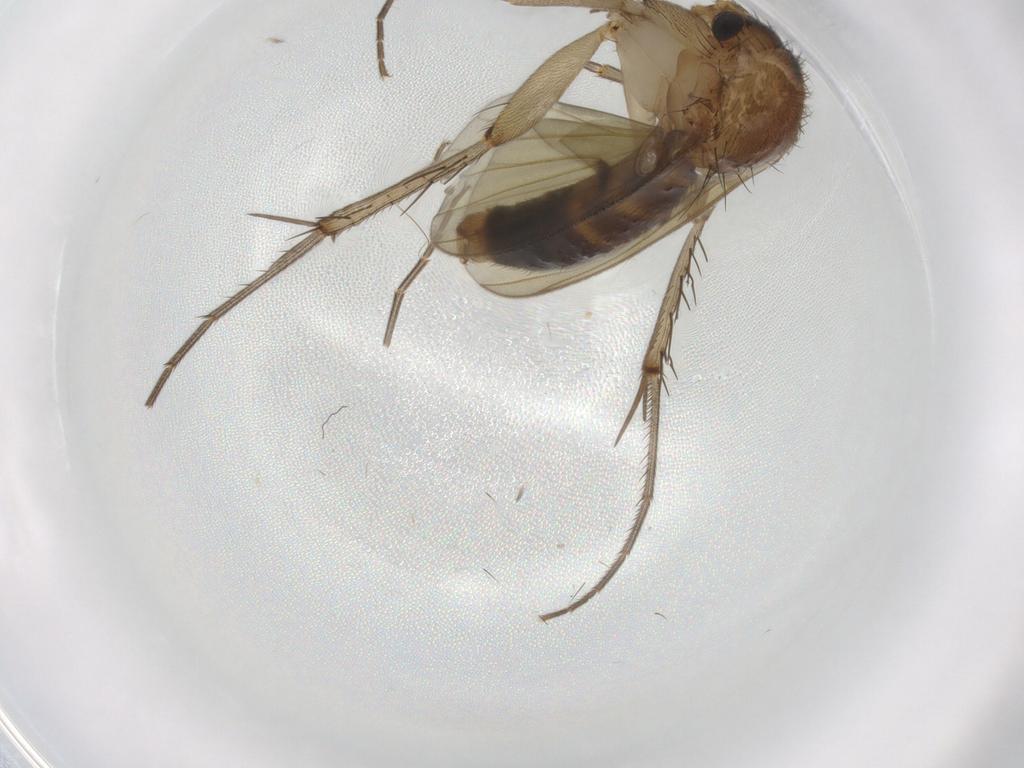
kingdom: Animalia
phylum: Arthropoda
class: Insecta
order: Diptera
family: Mycetophilidae
